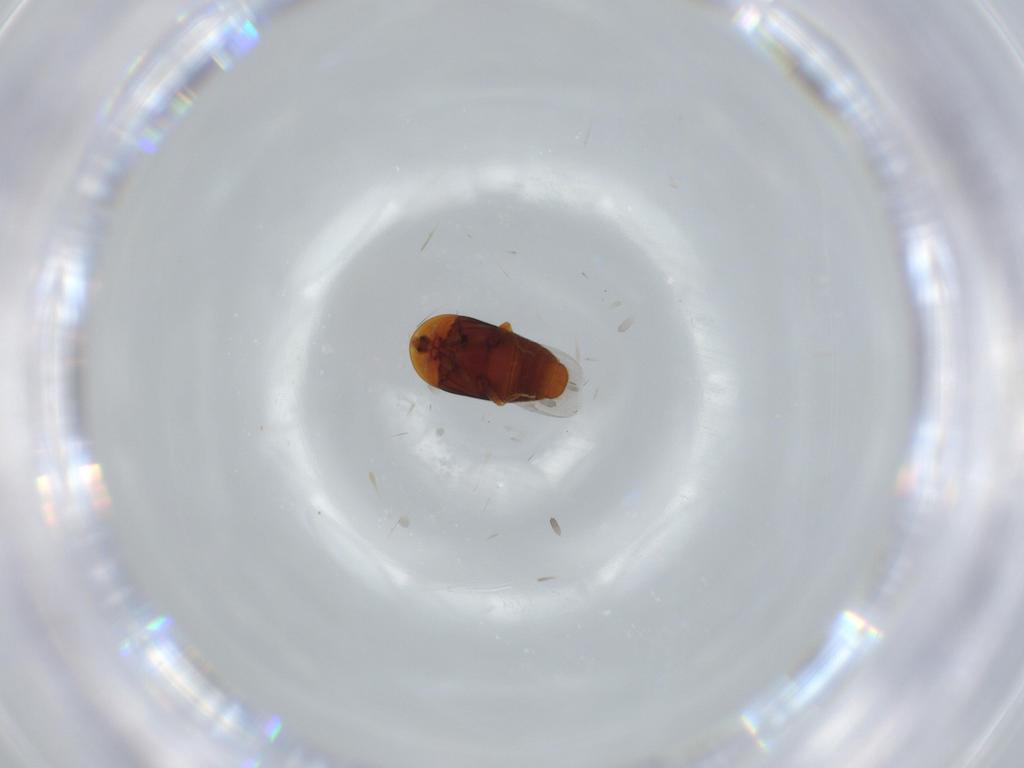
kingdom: Animalia
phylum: Arthropoda
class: Insecta
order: Coleoptera
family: Corylophidae
